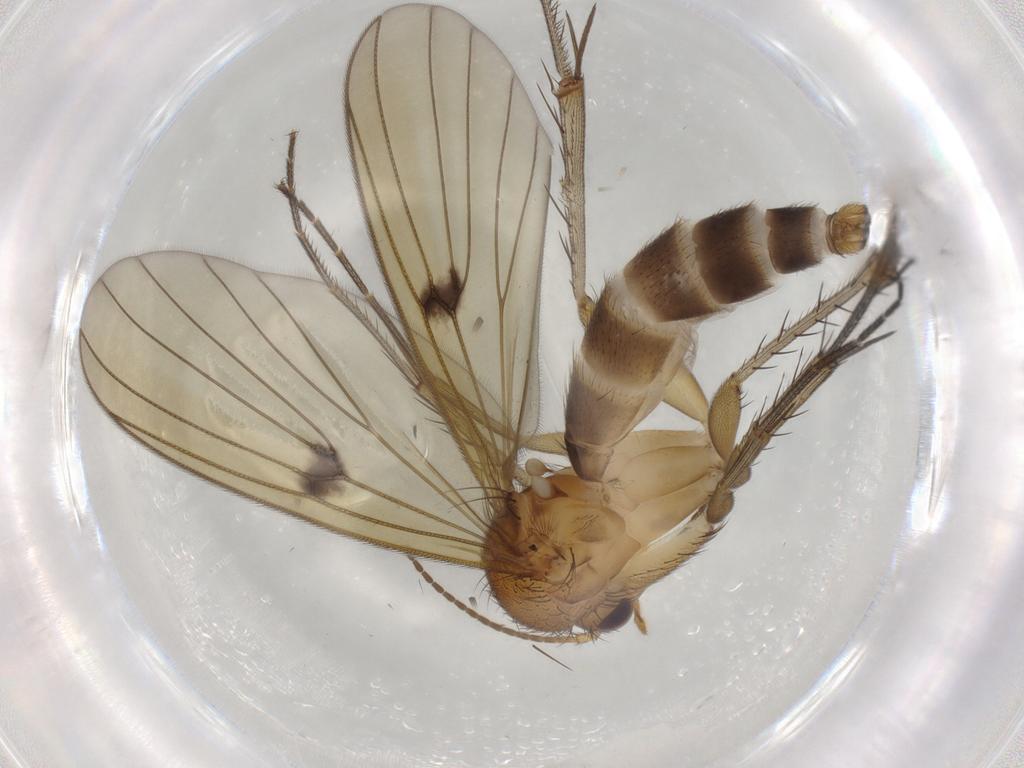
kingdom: Animalia
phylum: Arthropoda
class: Insecta
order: Diptera
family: Mycetophilidae
